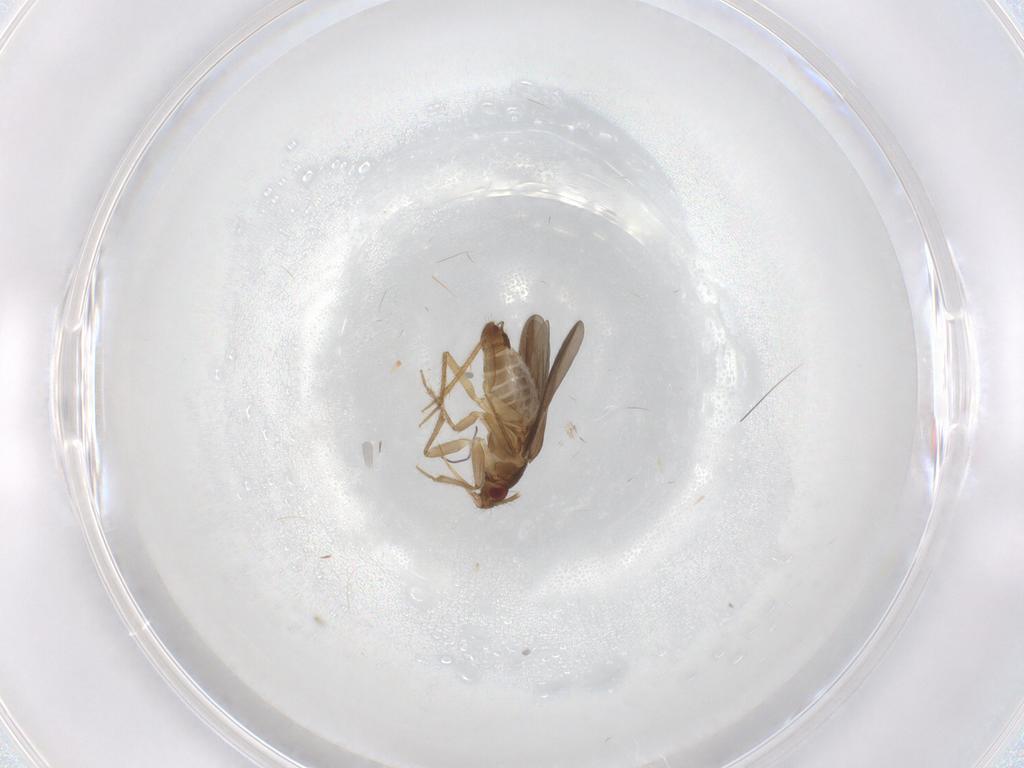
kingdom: Animalia
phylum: Arthropoda
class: Insecta
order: Hemiptera
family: Ceratocombidae
